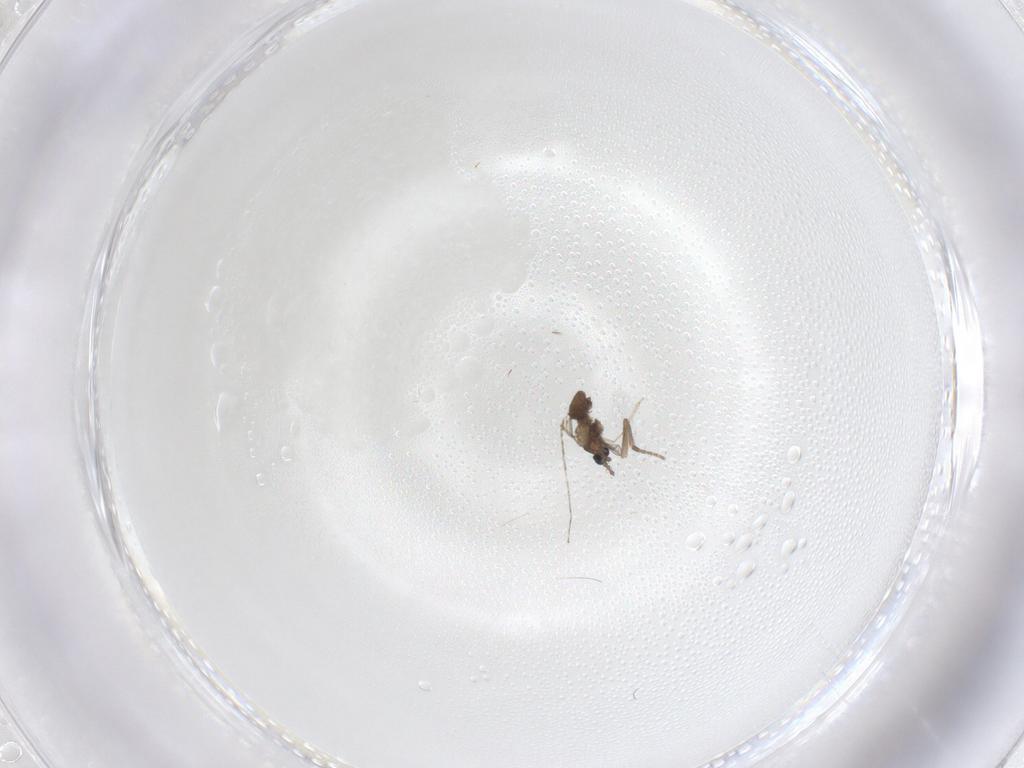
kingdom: Animalia
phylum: Arthropoda
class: Insecta
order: Diptera
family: Cecidomyiidae
